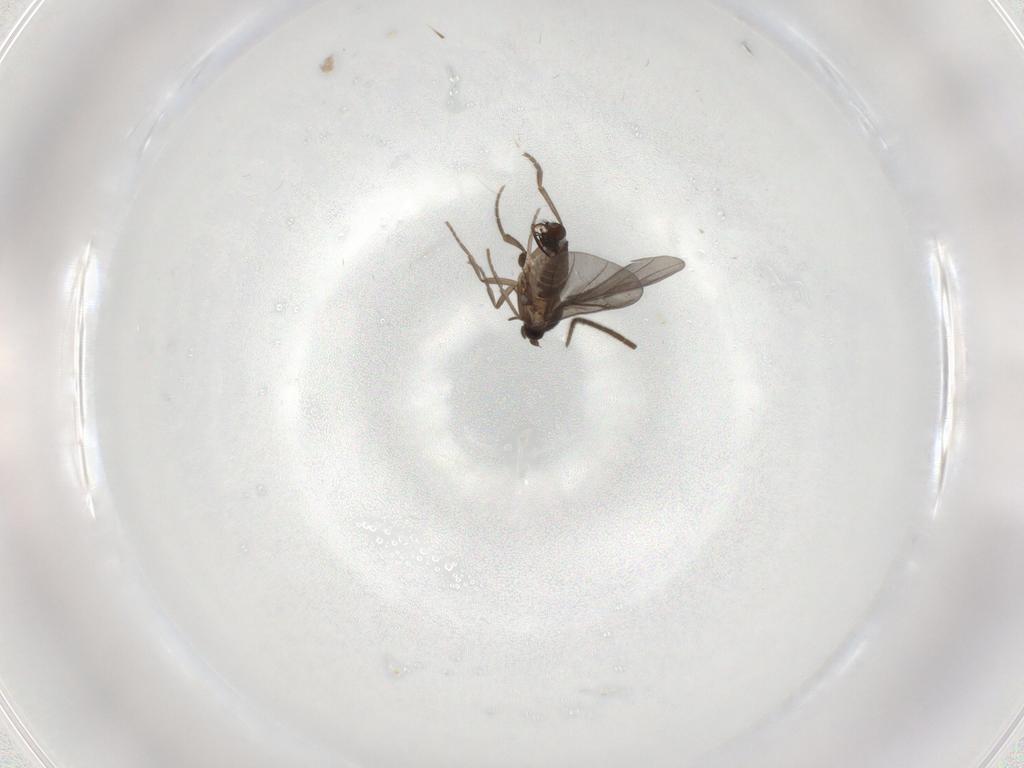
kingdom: Animalia
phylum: Arthropoda
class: Insecta
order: Diptera
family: Phoridae
